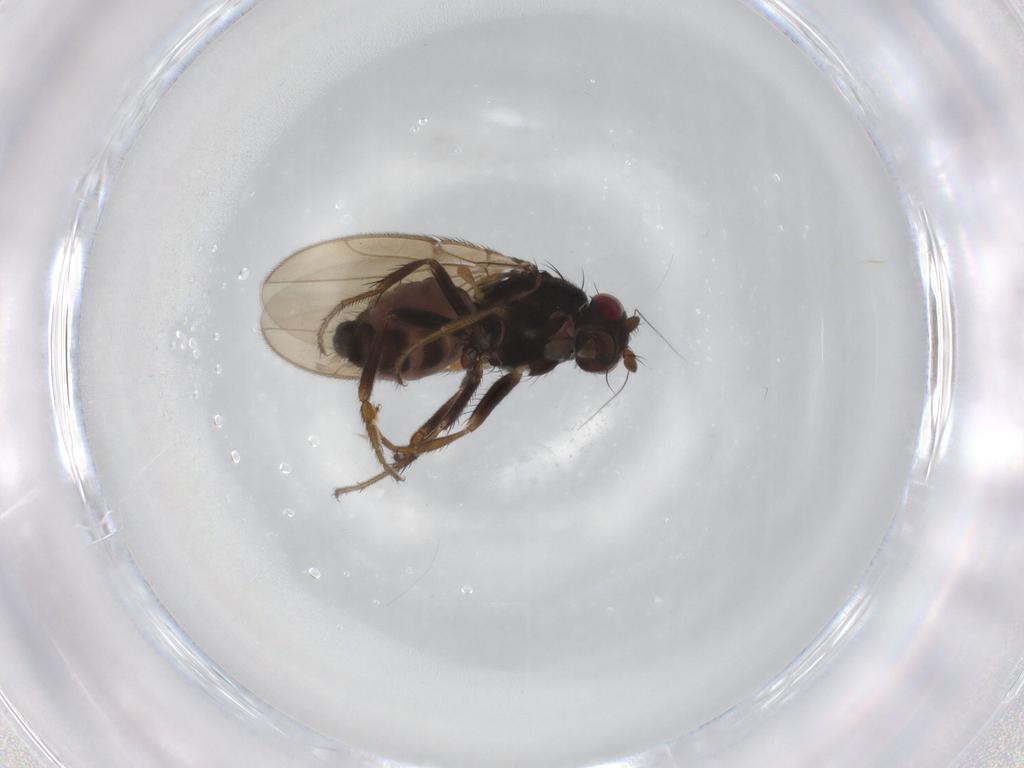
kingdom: Animalia
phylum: Arthropoda
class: Insecta
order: Diptera
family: Sphaeroceridae
